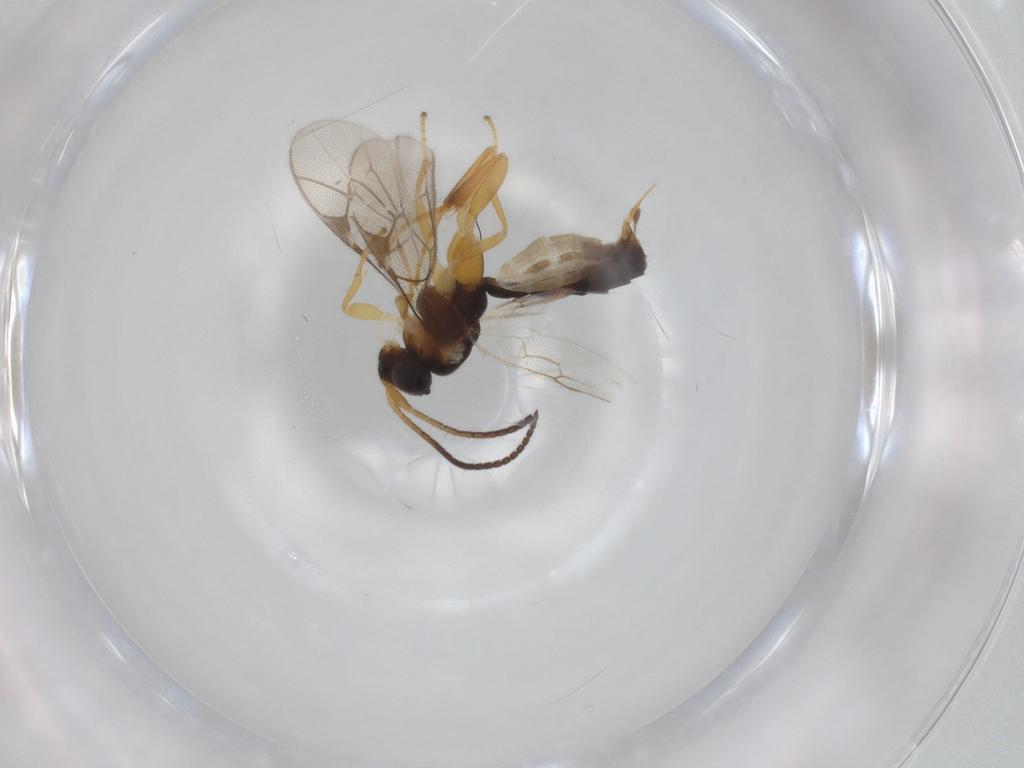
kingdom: Animalia
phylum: Arthropoda
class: Insecta
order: Hymenoptera
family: Ichneumonidae
